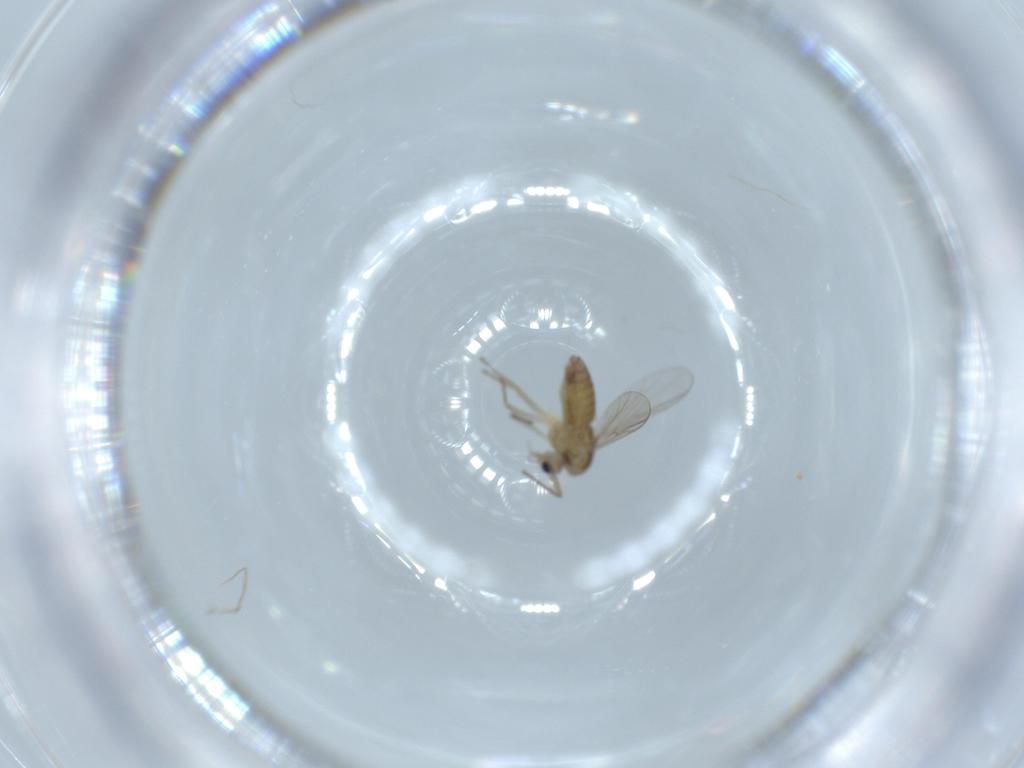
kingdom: Animalia
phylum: Arthropoda
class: Insecta
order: Diptera
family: Chironomidae
